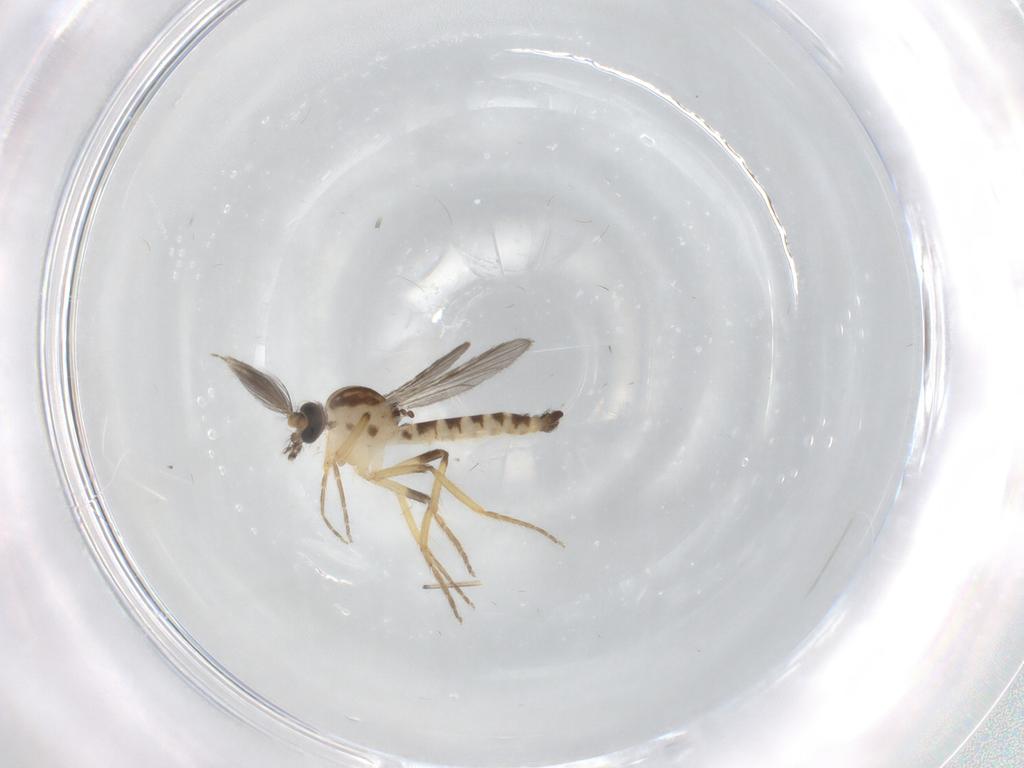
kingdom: Animalia
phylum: Arthropoda
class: Insecta
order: Diptera
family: Ceratopogonidae
